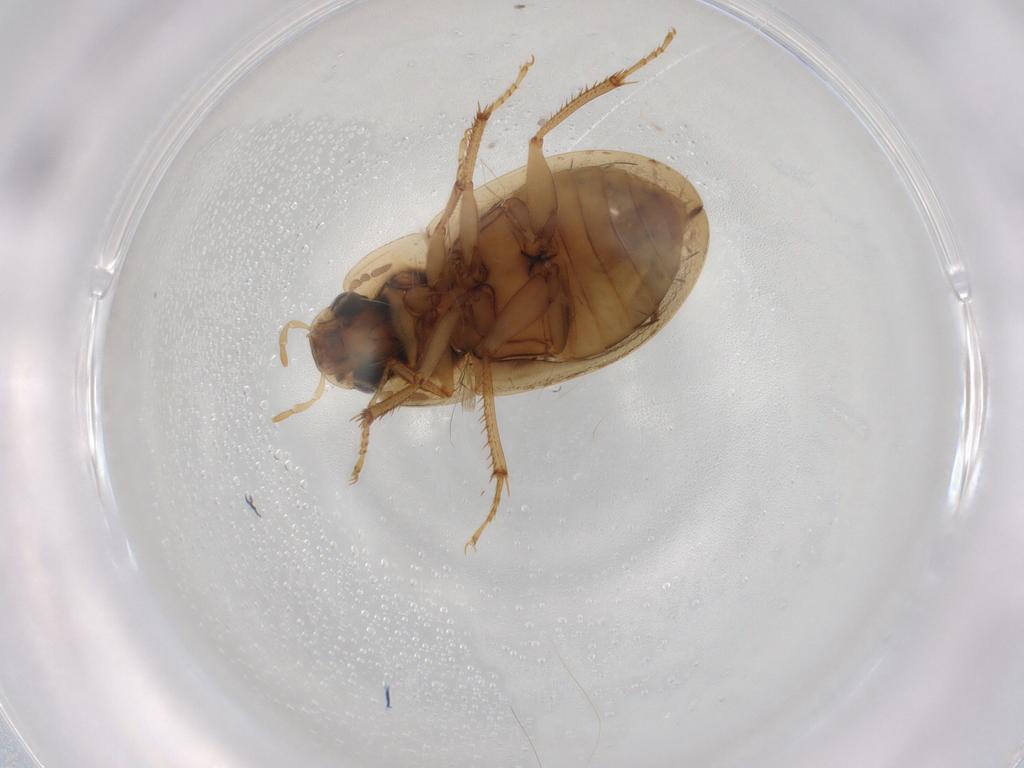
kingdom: Animalia
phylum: Arthropoda
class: Insecta
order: Coleoptera
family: Hydrophilidae
